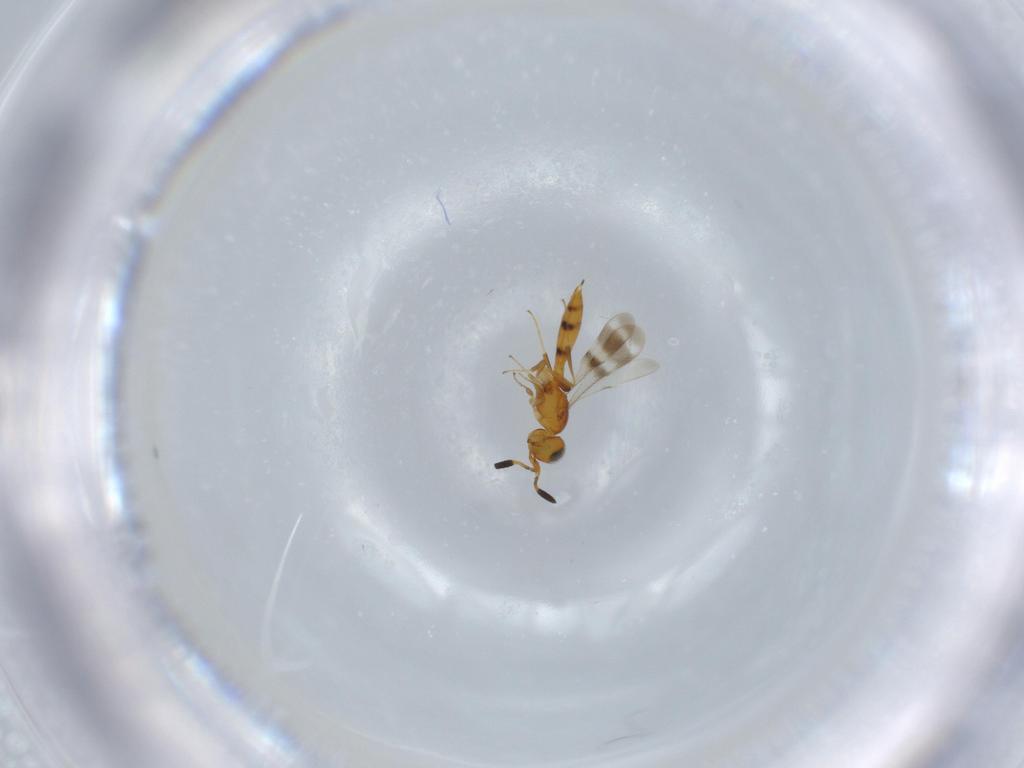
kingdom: Animalia
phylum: Arthropoda
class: Insecta
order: Hymenoptera
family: Scelionidae
